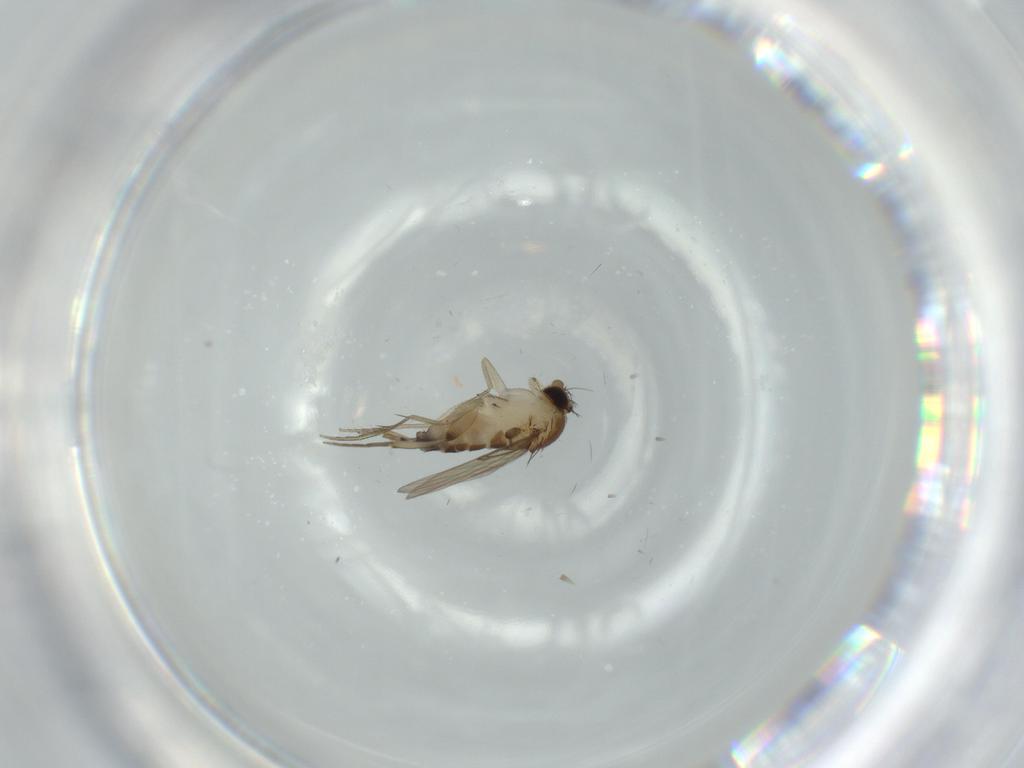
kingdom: Animalia
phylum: Arthropoda
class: Insecta
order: Diptera
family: Phoridae
